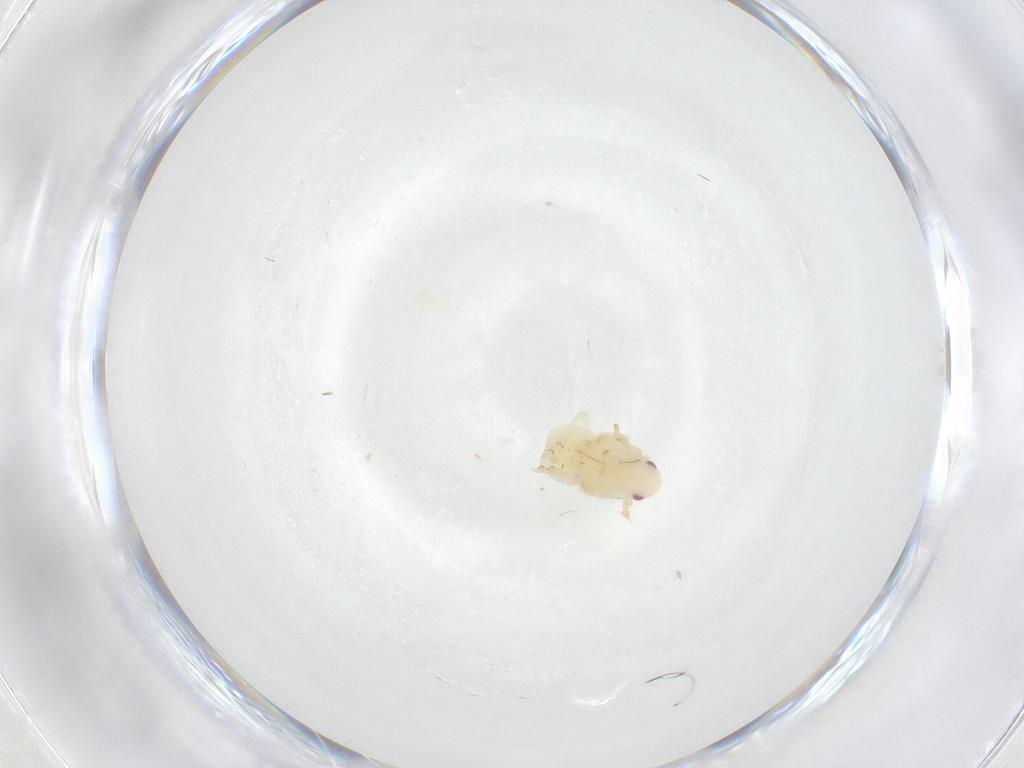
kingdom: Animalia
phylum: Arthropoda
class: Insecta
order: Hemiptera
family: Flatidae
